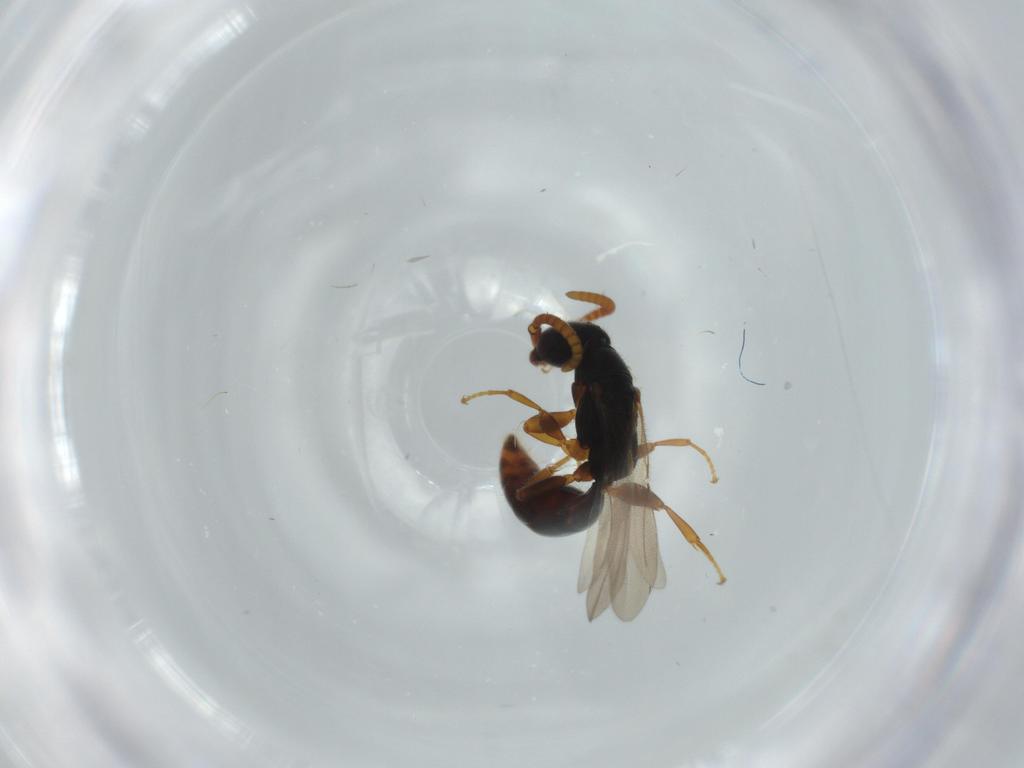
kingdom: Animalia
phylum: Arthropoda
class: Insecta
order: Hymenoptera
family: Bethylidae
